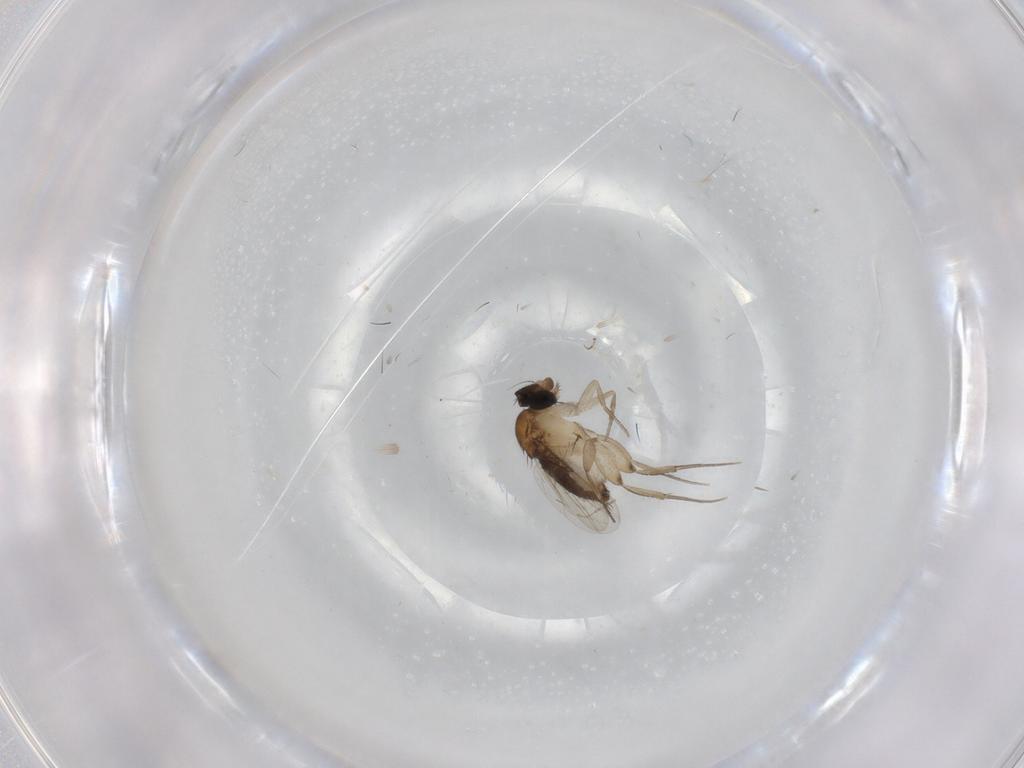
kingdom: Animalia
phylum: Arthropoda
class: Insecta
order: Diptera
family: Phoridae
